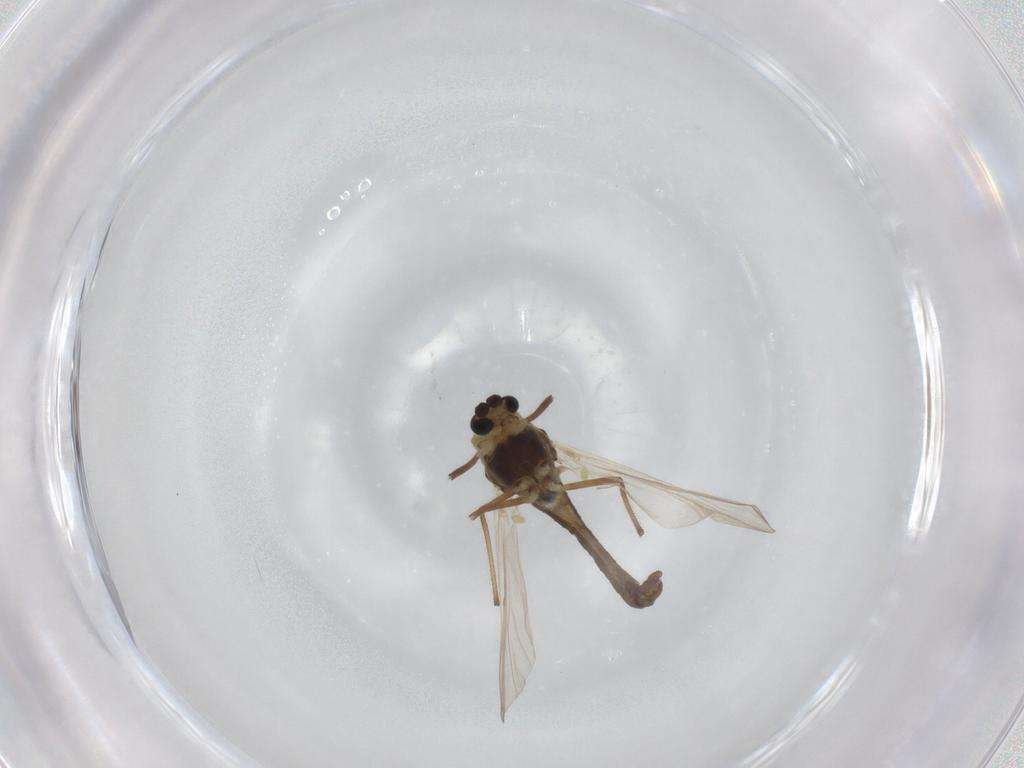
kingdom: Animalia
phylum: Arthropoda
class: Insecta
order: Diptera
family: Chironomidae
